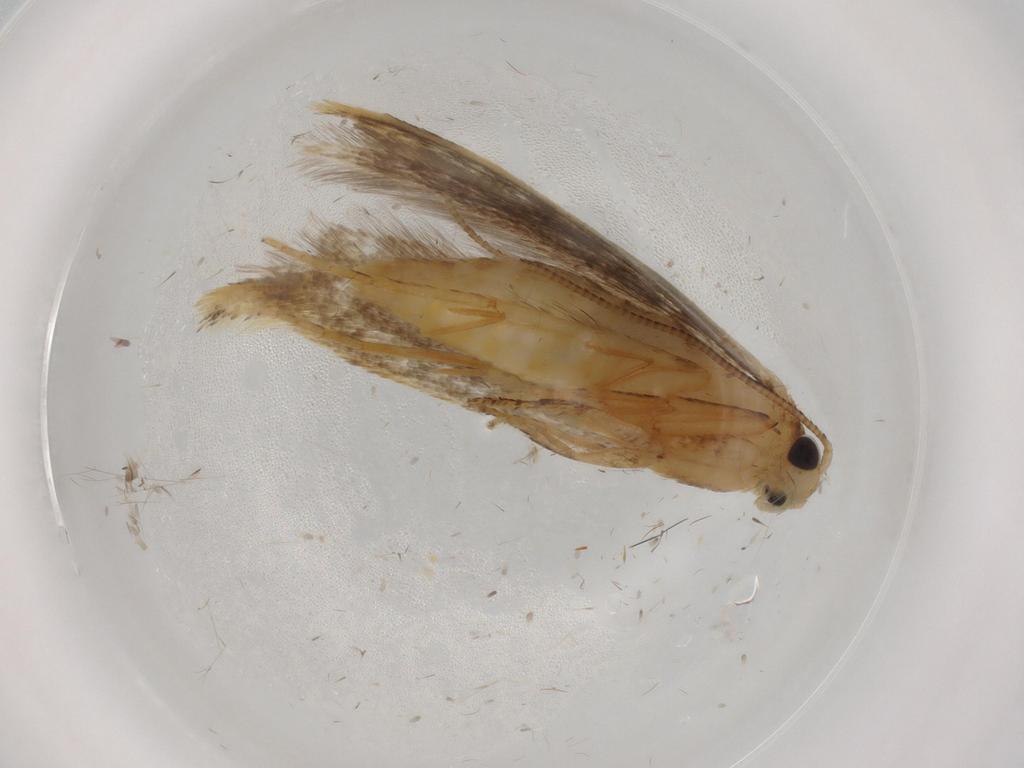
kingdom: Animalia
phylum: Arthropoda
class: Insecta
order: Lepidoptera
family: Tineidae
